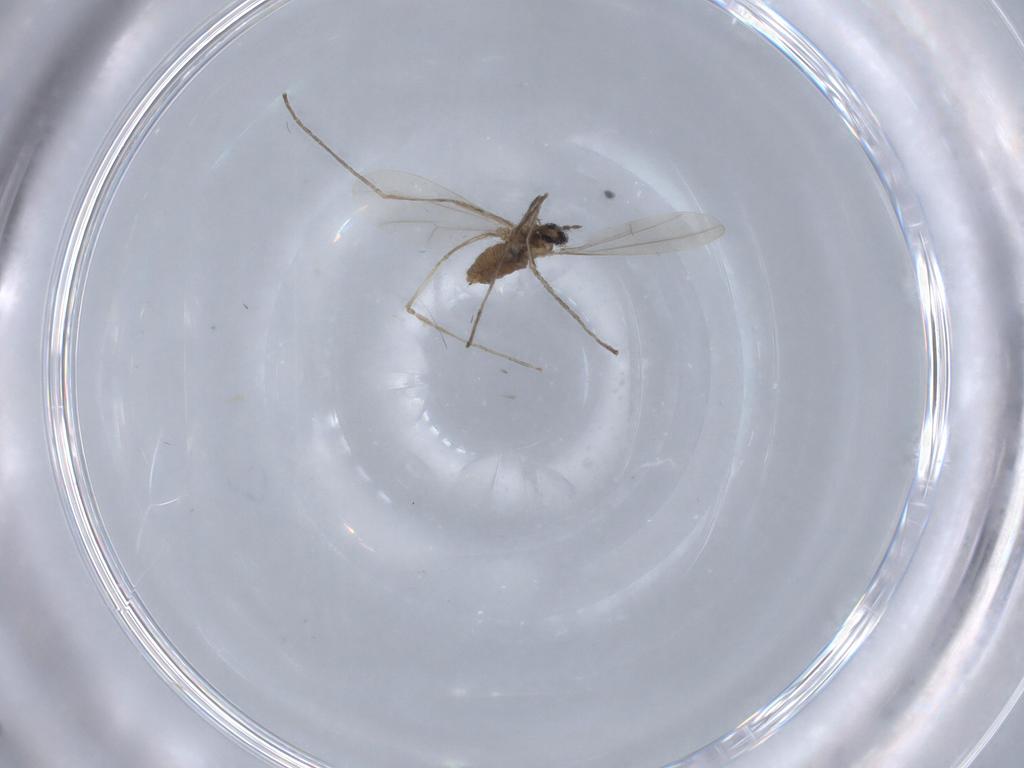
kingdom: Animalia
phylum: Arthropoda
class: Insecta
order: Diptera
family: Cecidomyiidae
